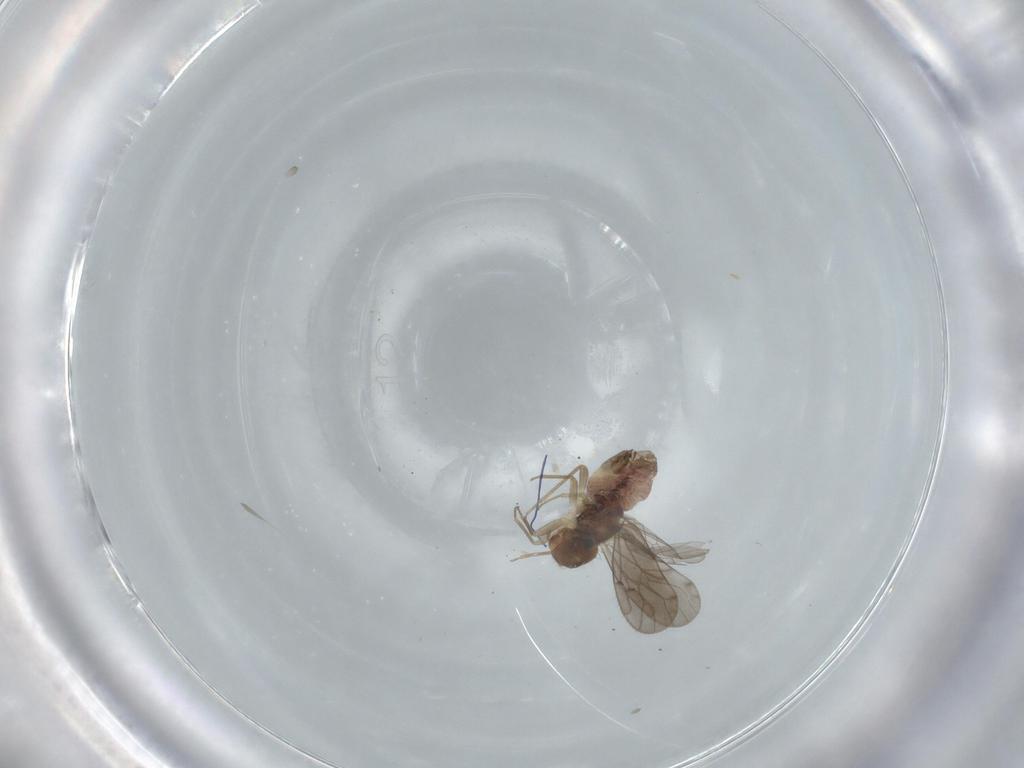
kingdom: Animalia
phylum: Arthropoda
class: Insecta
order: Psocodea
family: Ectopsocidae
